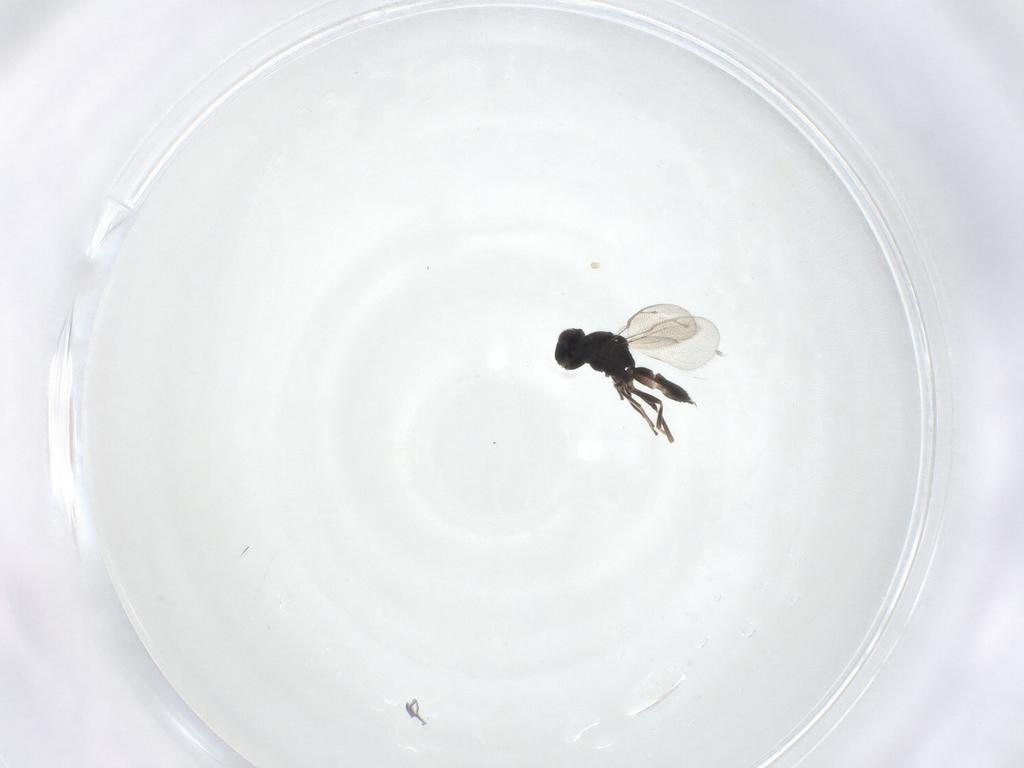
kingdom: Animalia
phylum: Arthropoda
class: Insecta
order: Hymenoptera
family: Pteromalidae
